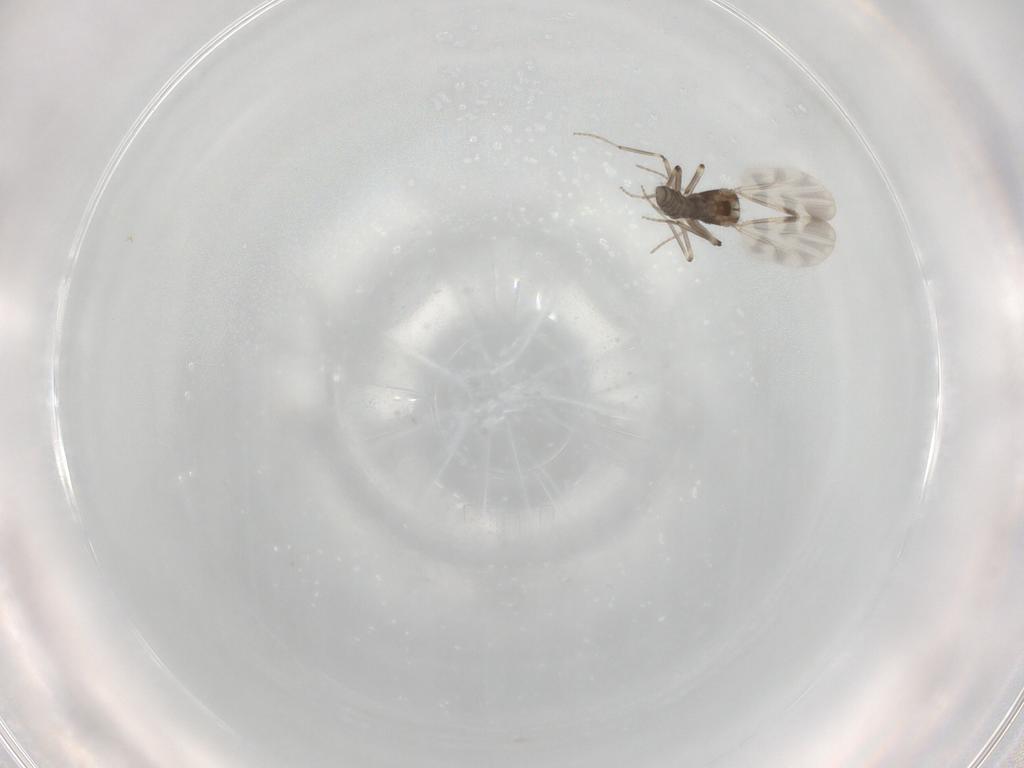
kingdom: Animalia
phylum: Arthropoda
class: Insecta
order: Diptera
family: Ceratopogonidae
